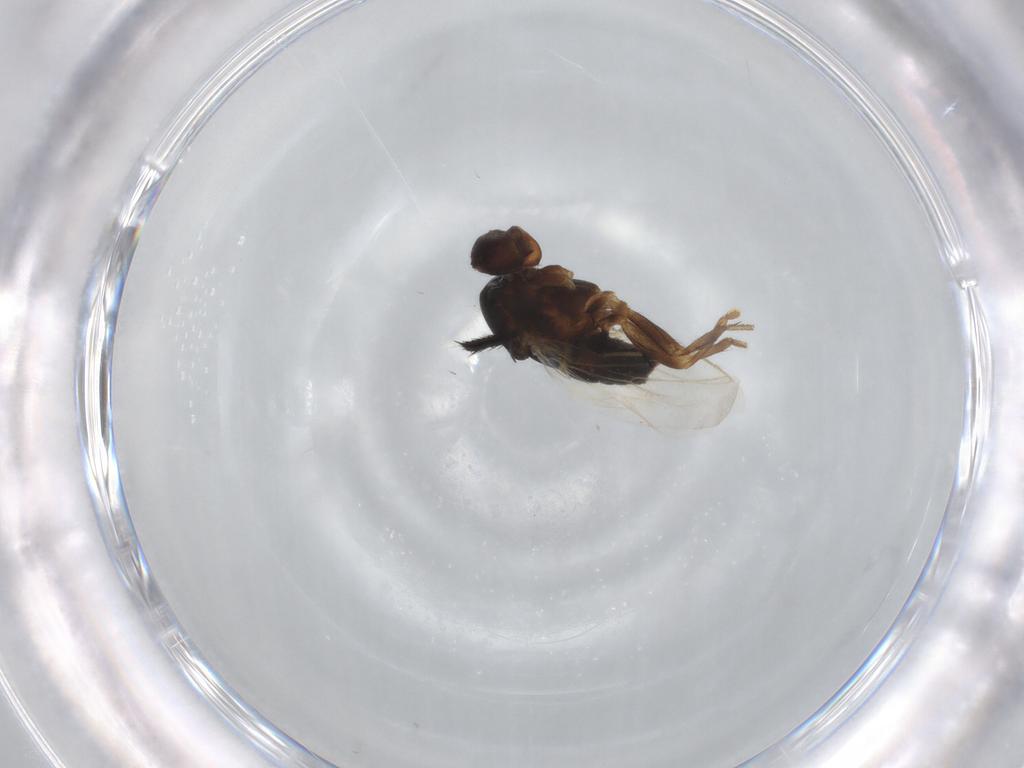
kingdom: Animalia
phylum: Arthropoda
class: Insecta
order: Diptera
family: Sphaeroceridae
